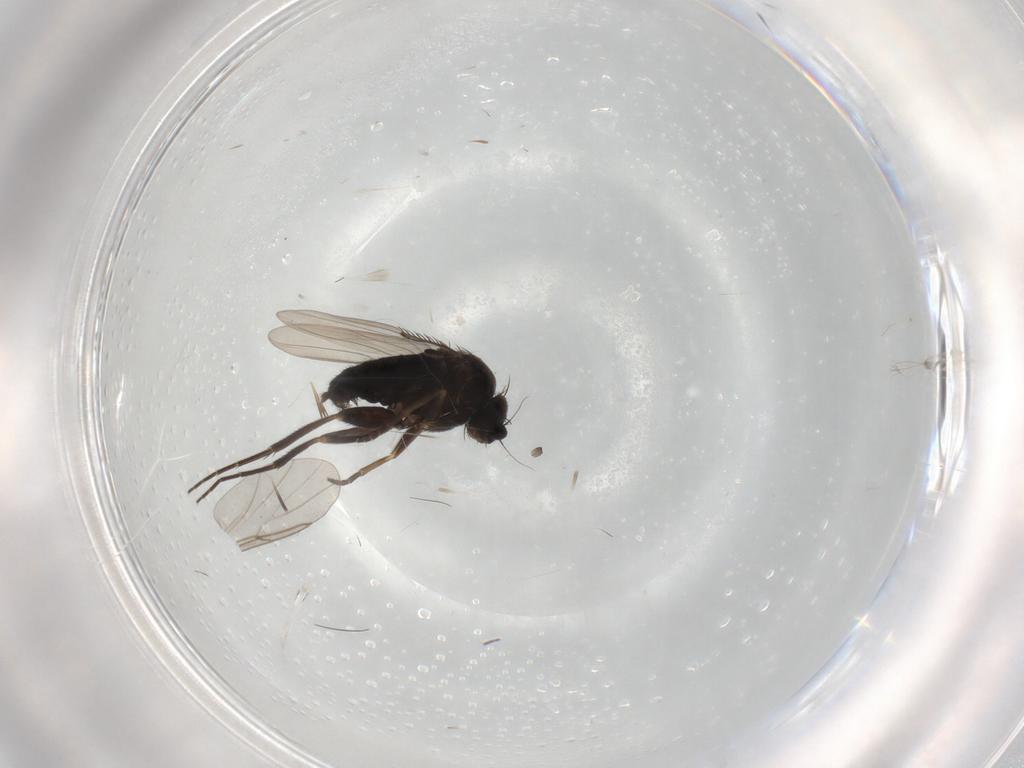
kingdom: Animalia
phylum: Arthropoda
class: Insecta
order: Diptera
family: Phoridae
